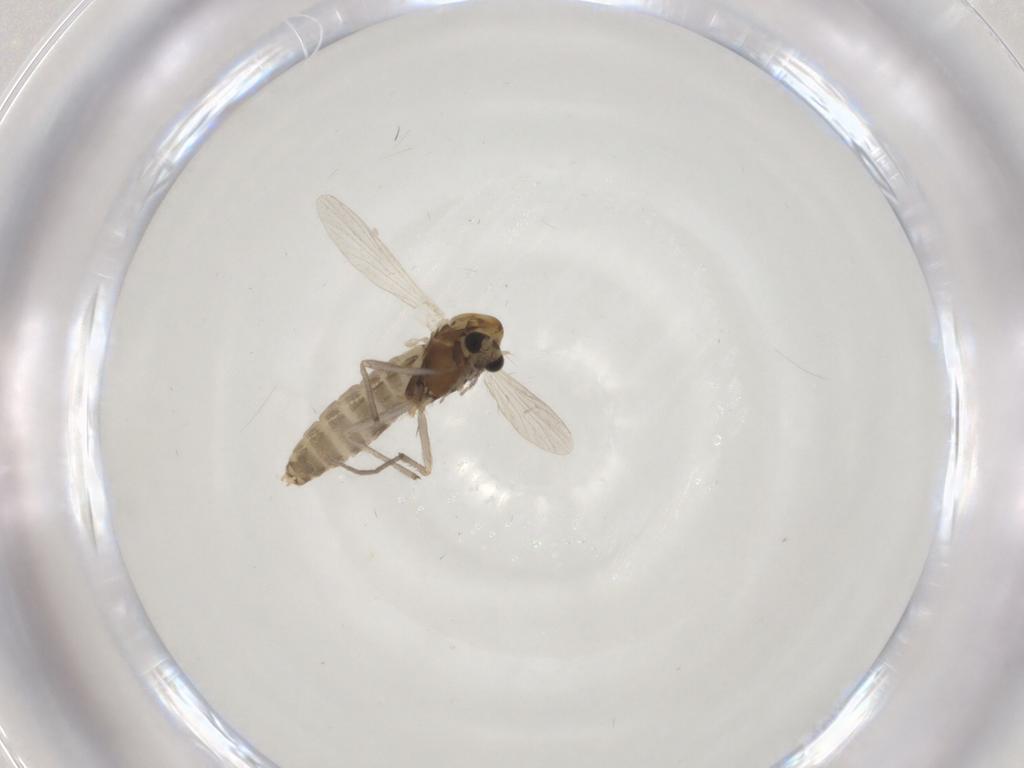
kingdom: Animalia
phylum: Arthropoda
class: Insecta
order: Diptera
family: Chironomidae
